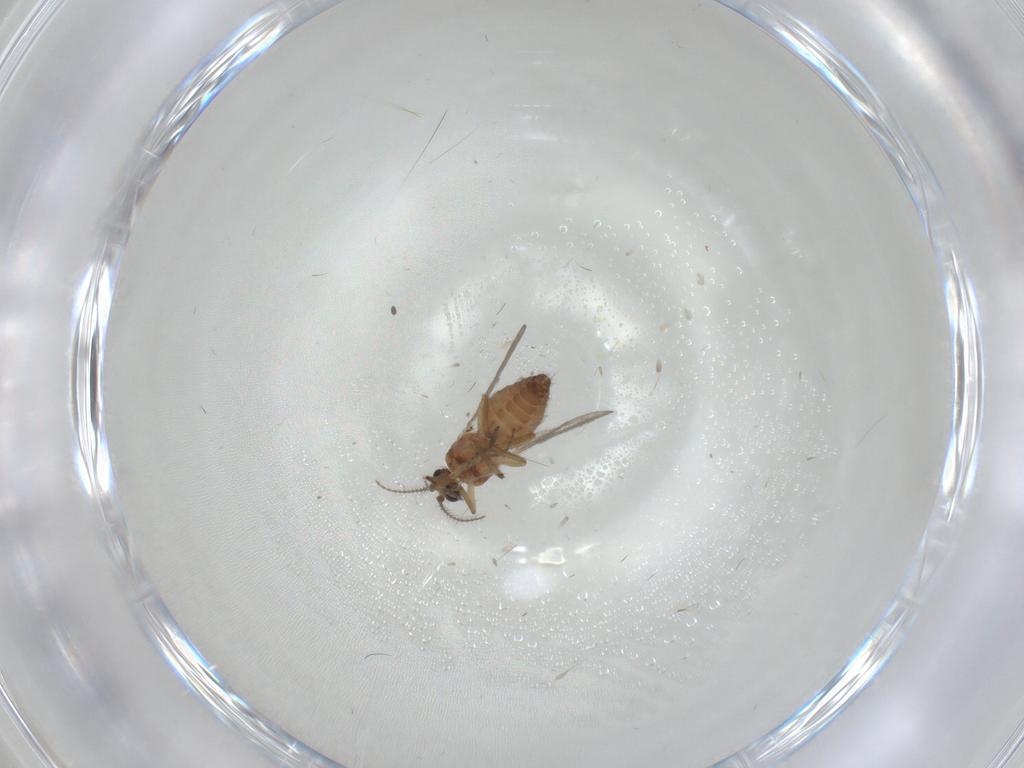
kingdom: Animalia
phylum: Arthropoda
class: Insecta
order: Diptera
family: Ceratopogonidae
